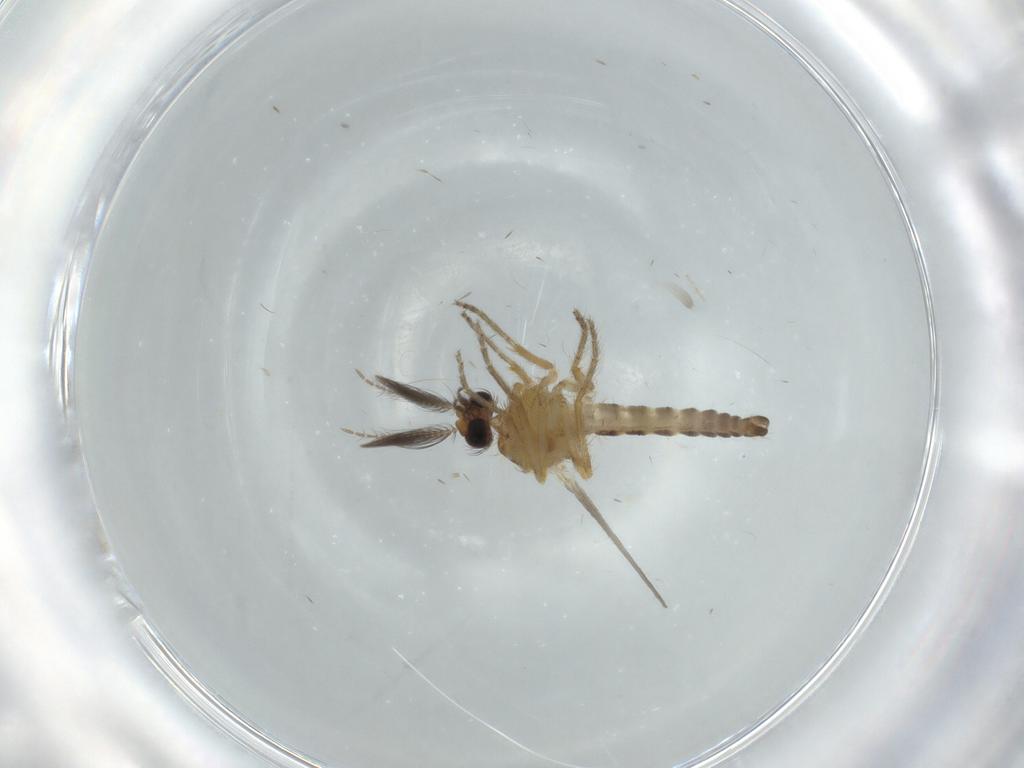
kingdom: Animalia
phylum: Arthropoda
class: Insecta
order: Diptera
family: Ceratopogonidae
